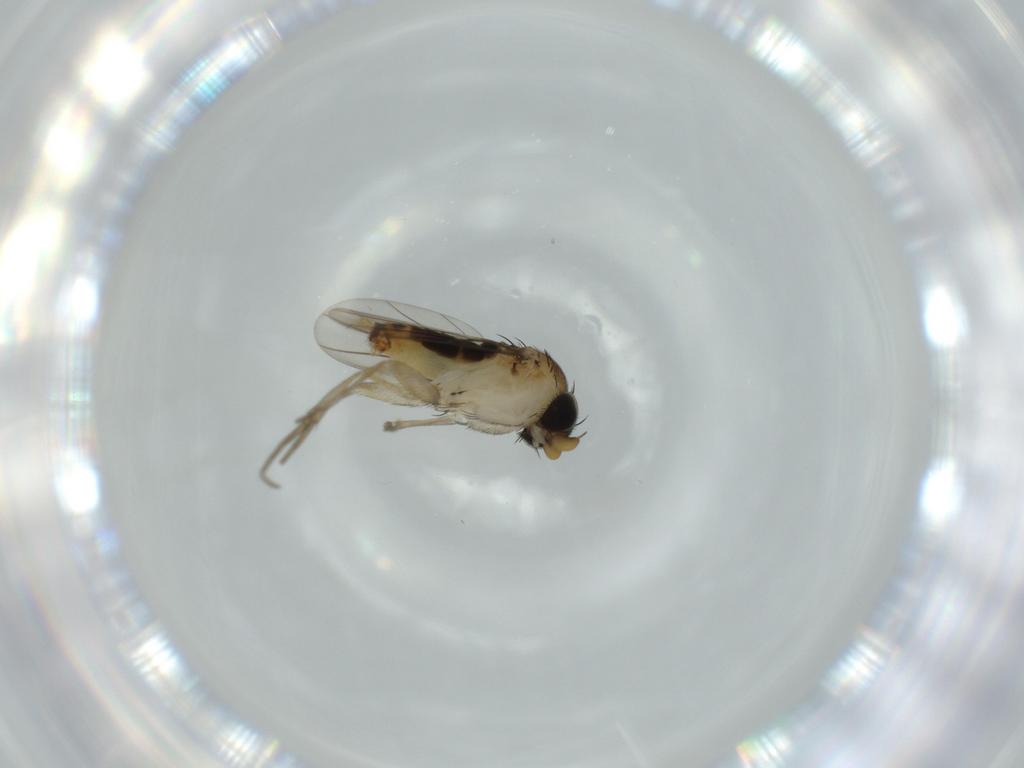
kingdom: Animalia
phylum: Arthropoda
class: Insecta
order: Diptera
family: Phoridae
